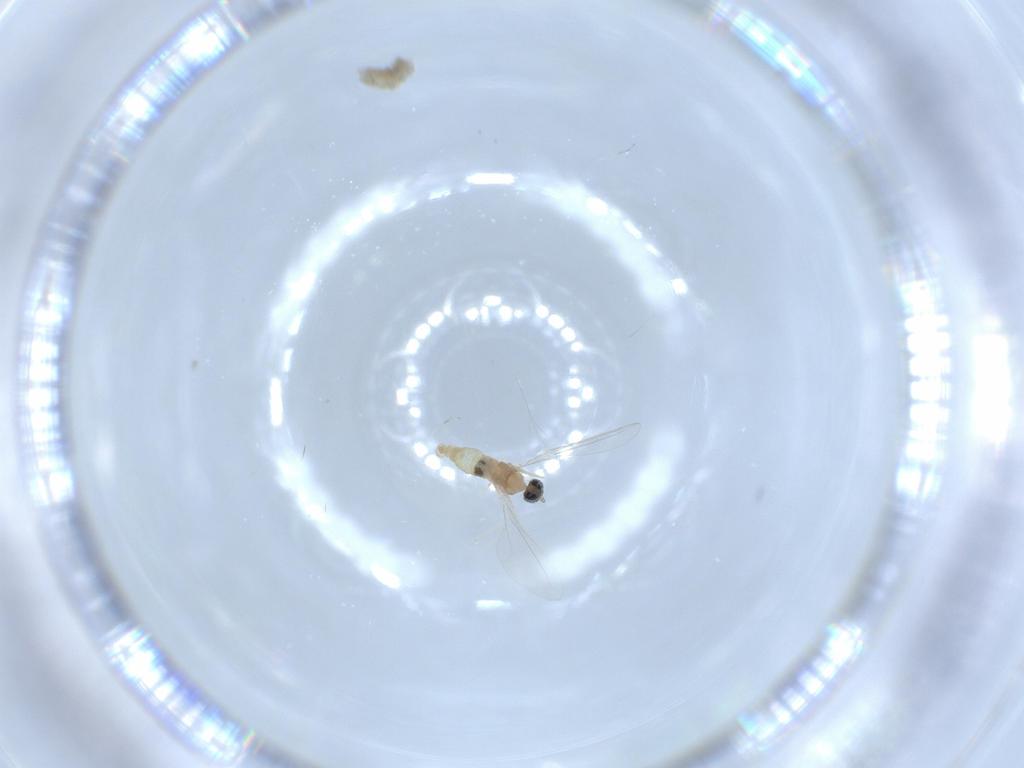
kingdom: Animalia
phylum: Arthropoda
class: Insecta
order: Diptera
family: Cecidomyiidae
